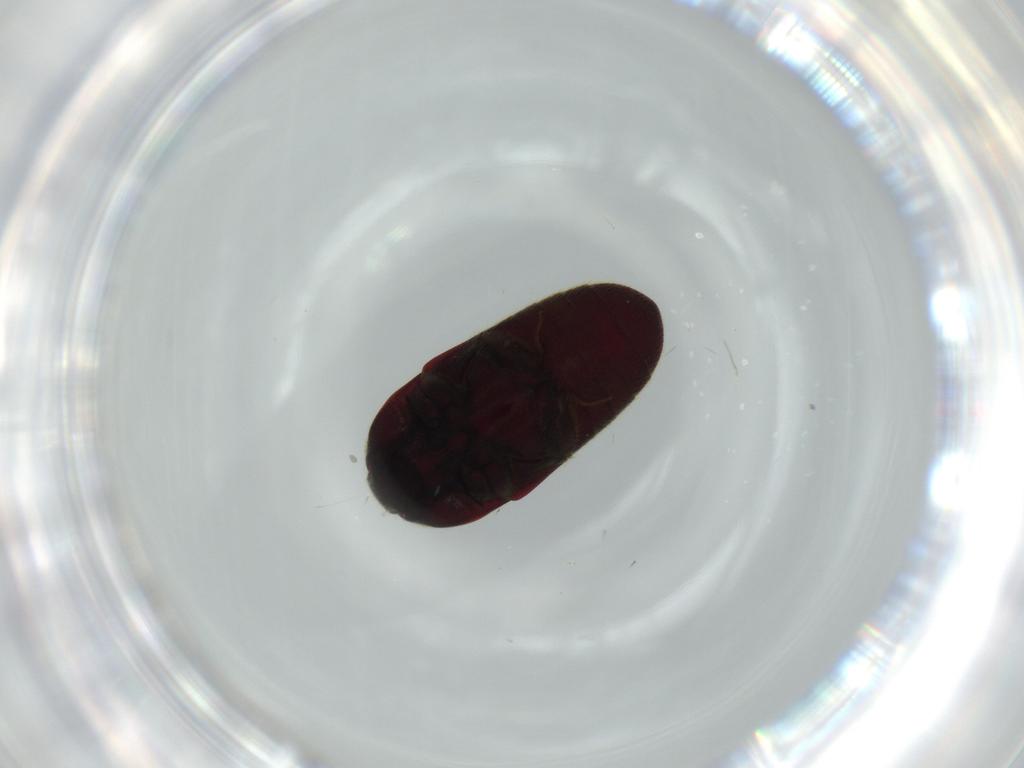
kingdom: Animalia
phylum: Arthropoda
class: Insecta
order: Coleoptera
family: Throscidae
